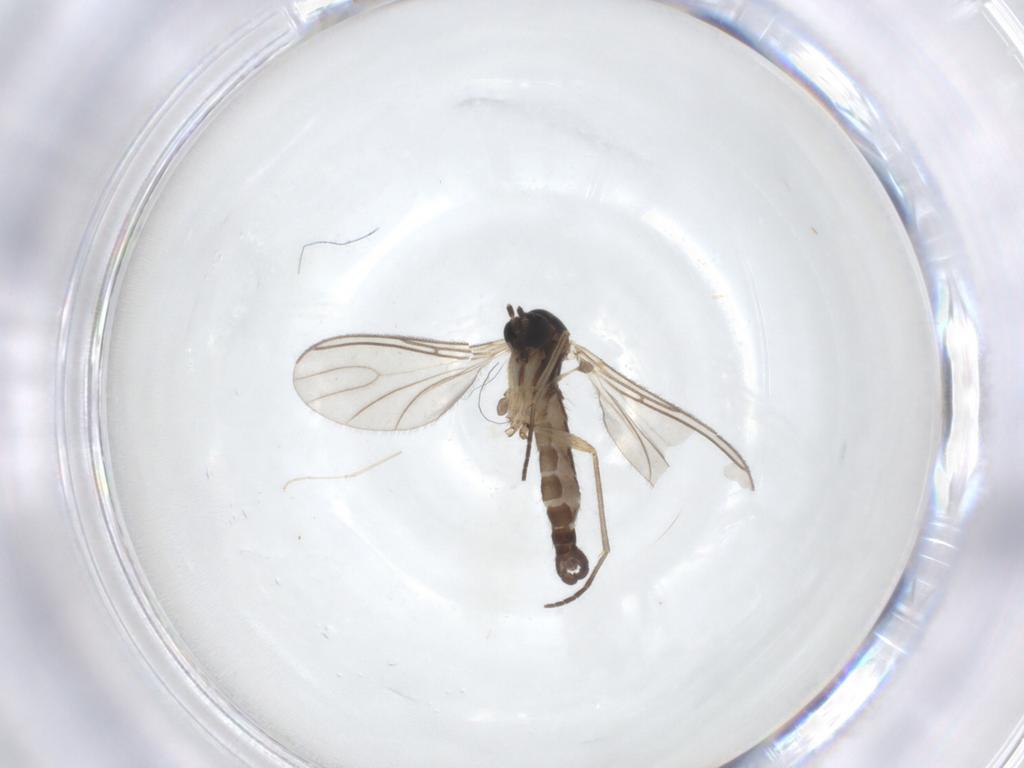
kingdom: Animalia
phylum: Arthropoda
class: Insecta
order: Diptera
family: Sciaridae
